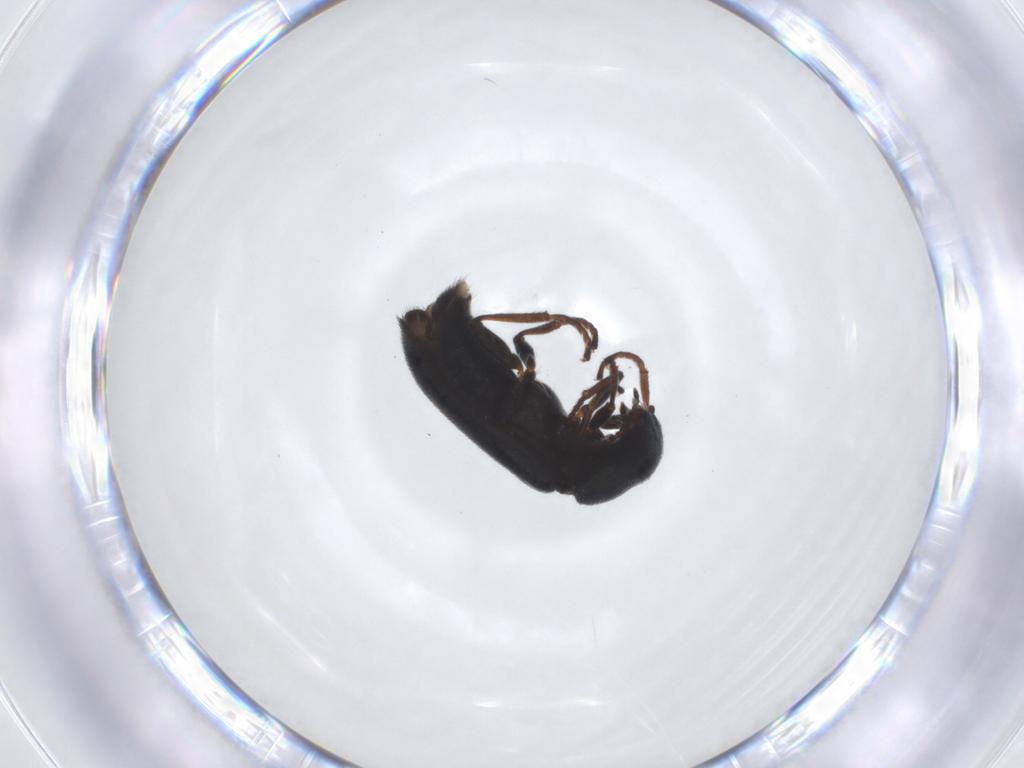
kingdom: Animalia
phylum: Arthropoda
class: Insecta
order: Coleoptera
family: Melyridae
